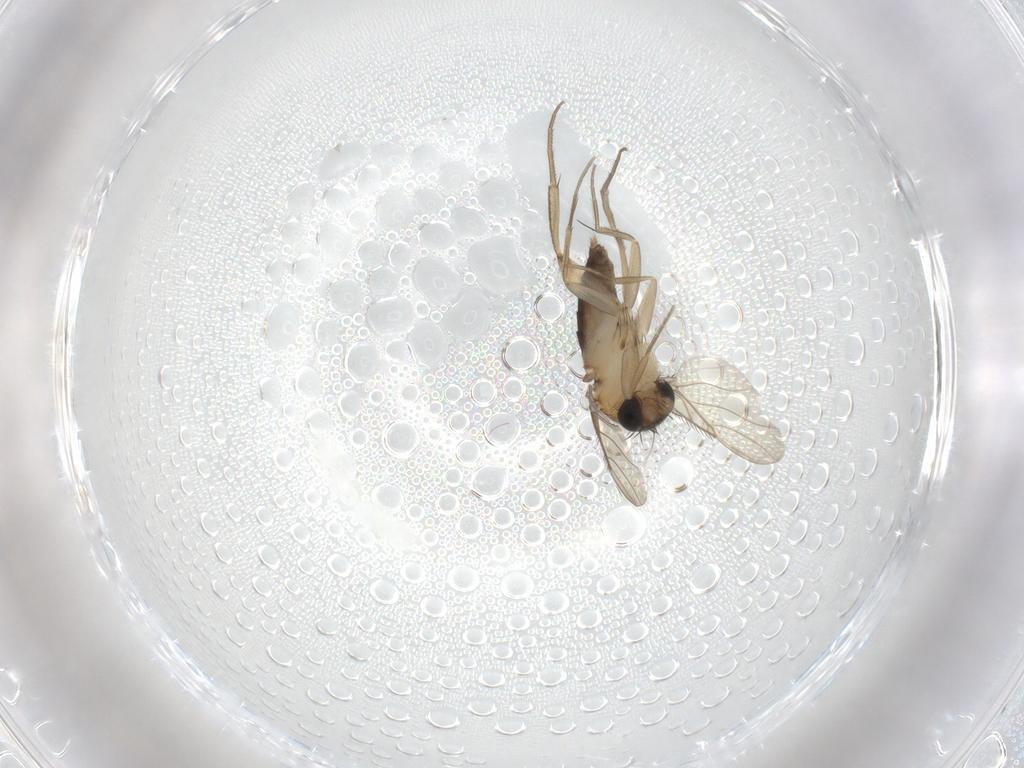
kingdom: Animalia
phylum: Arthropoda
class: Insecta
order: Diptera
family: Phoridae
